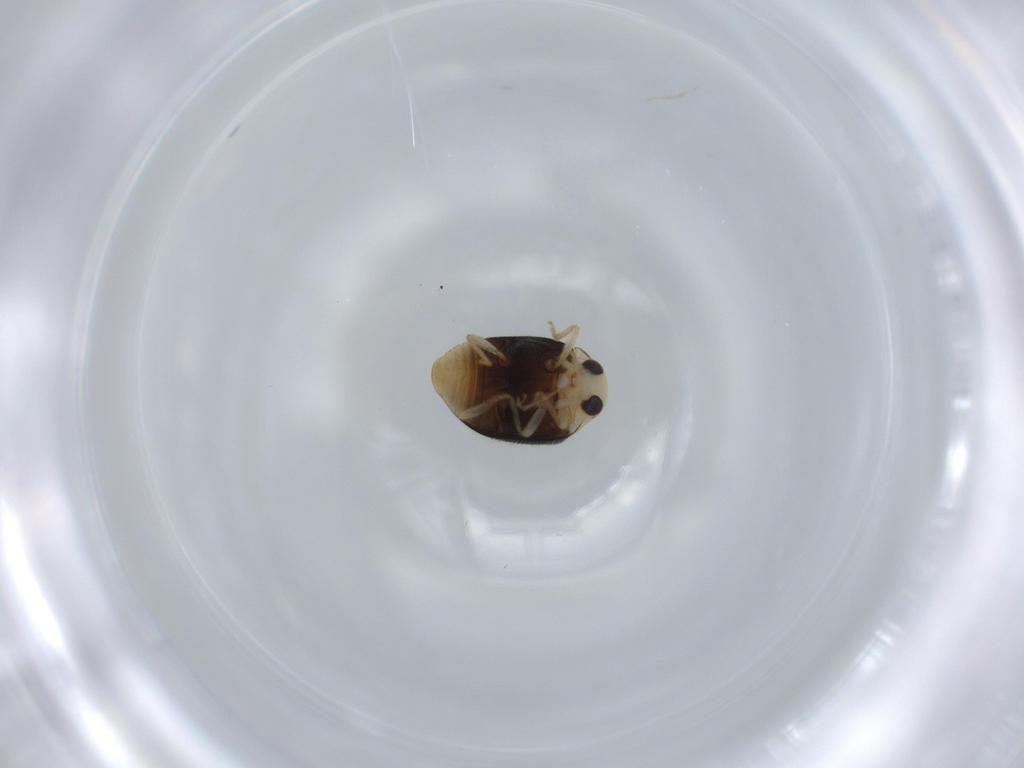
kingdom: Animalia
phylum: Arthropoda
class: Insecta
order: Coleoptera
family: Coccinellidae
